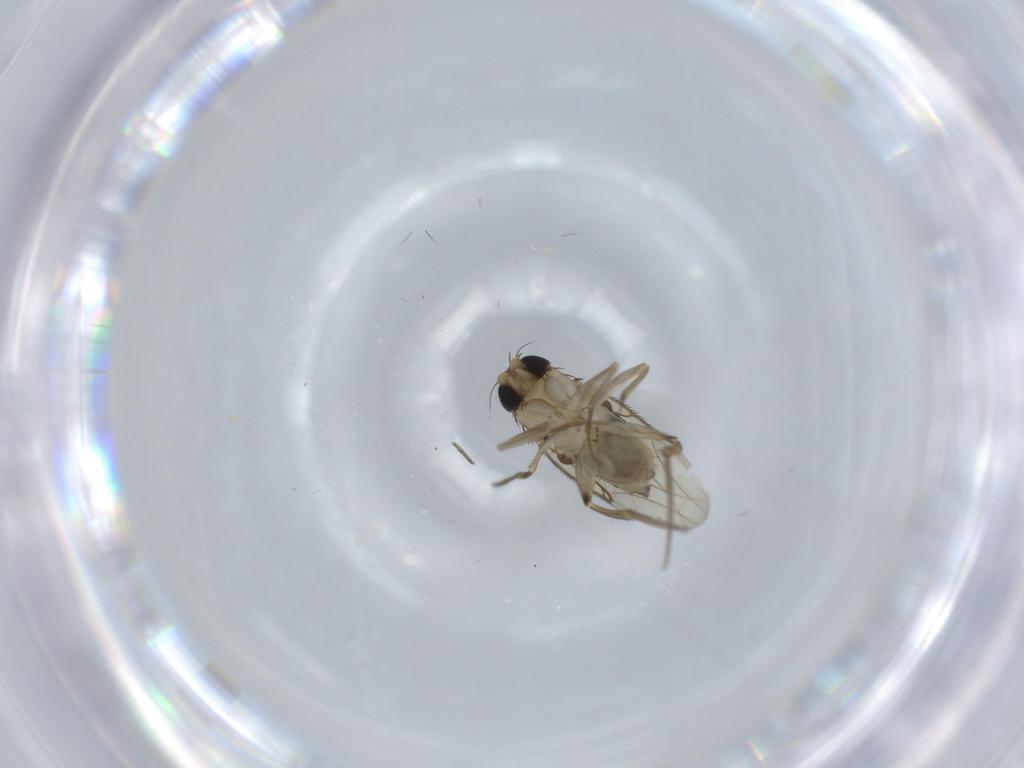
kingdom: Animalia
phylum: Arthropoda
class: Insecta
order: Diptera
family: Phoridae
